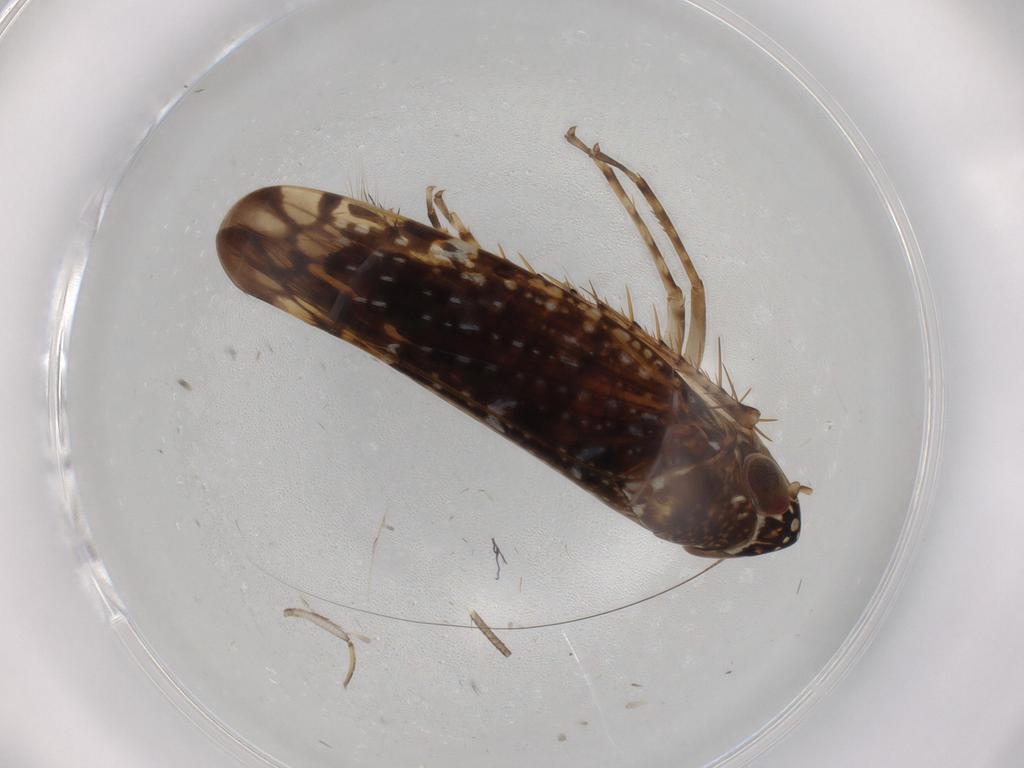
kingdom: Animalia
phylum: Arthropoda
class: Insecta
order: Hemiptera
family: Cicadellidae
